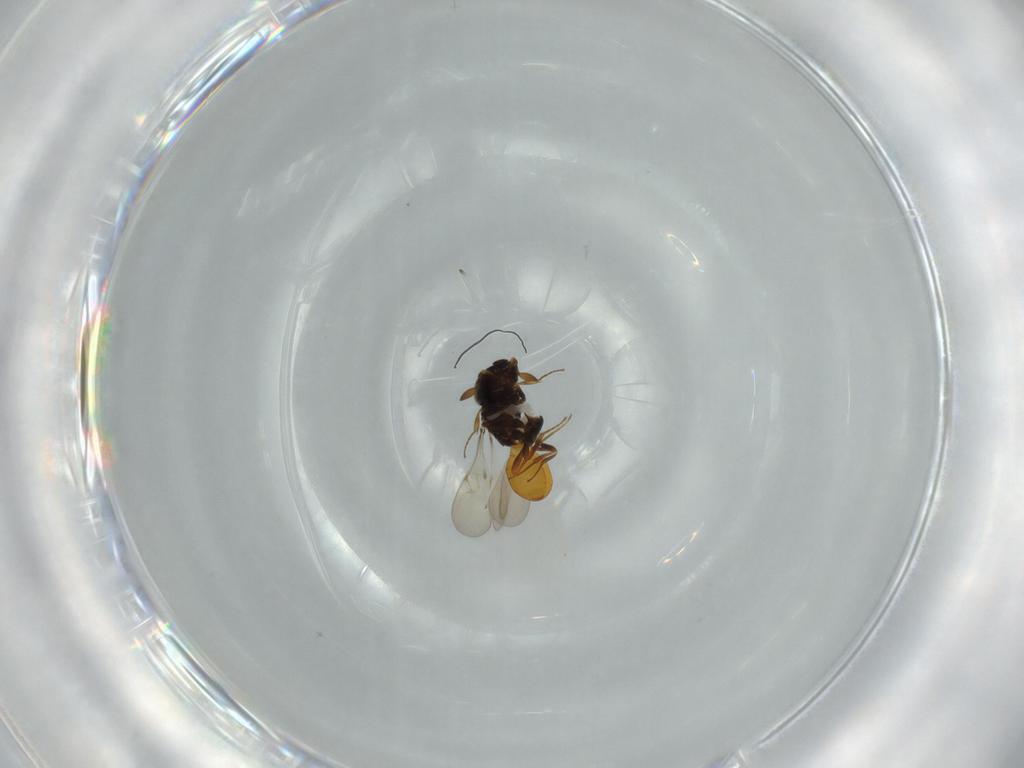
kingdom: Animalia
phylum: Arthropoda
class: Insecta
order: Hymenoptera
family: Scelionidae
